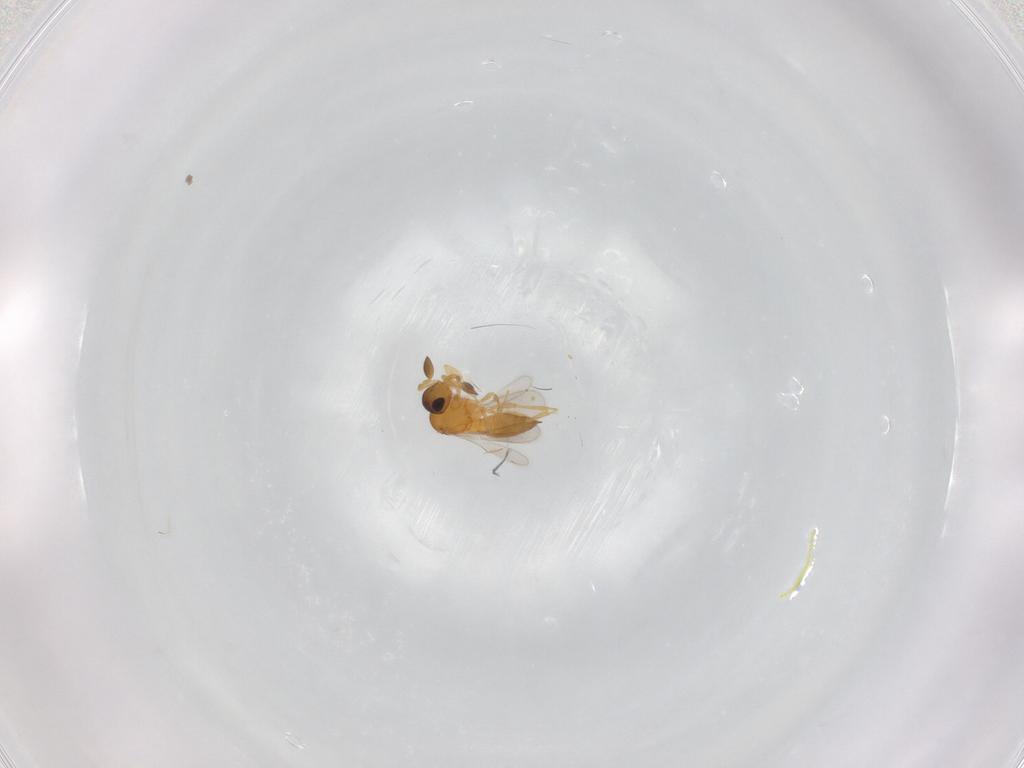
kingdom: Animalia
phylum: Arthropoda
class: Insecta
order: Hymenoptera
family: Scelionidae
